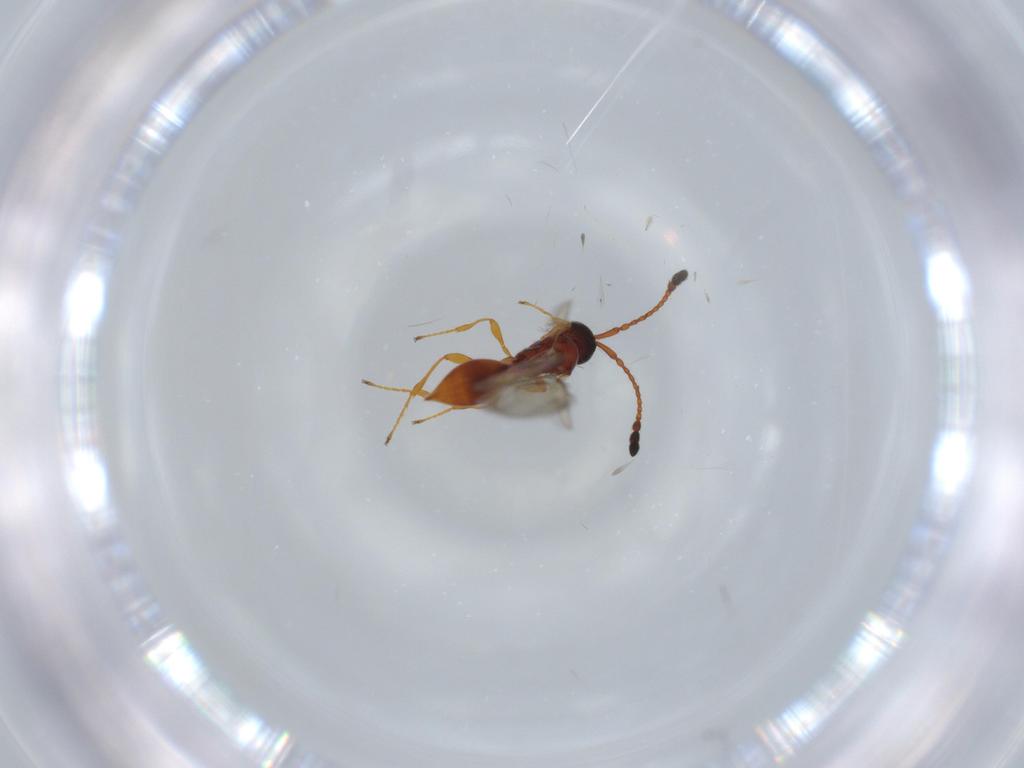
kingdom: Animalia
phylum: Arthropoda
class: Insecta
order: Hymenoptera
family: Diapriidae
